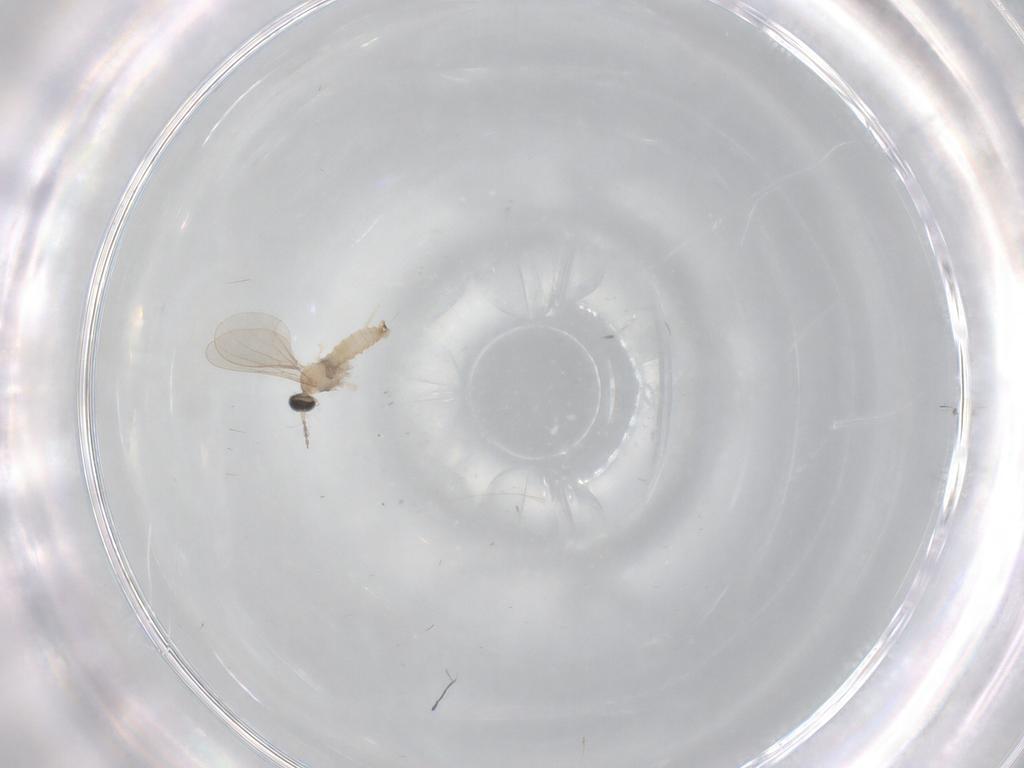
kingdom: Animalia
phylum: Arthropoda
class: Insecta
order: Diptera
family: Cecidomyiidae
